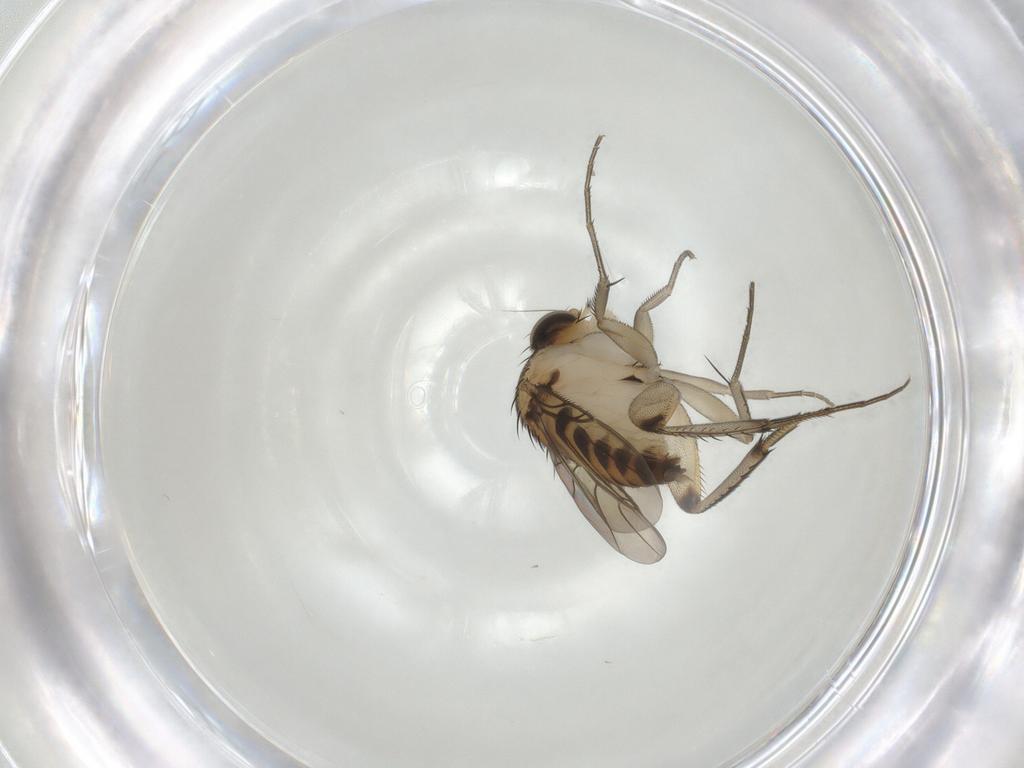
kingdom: Animalia
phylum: Arthropoda
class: Insecta
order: Diptera
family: Phoridae
